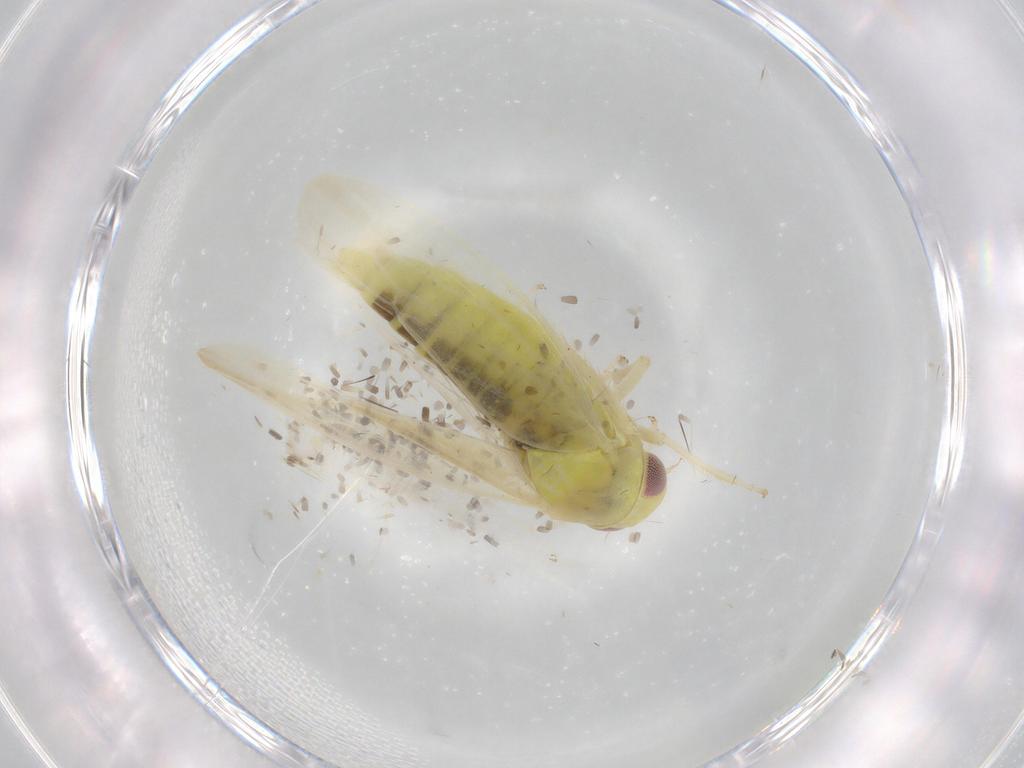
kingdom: Animalia
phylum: Arthropoda
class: Insecta
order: Hemiptera
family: Cicadellidae
